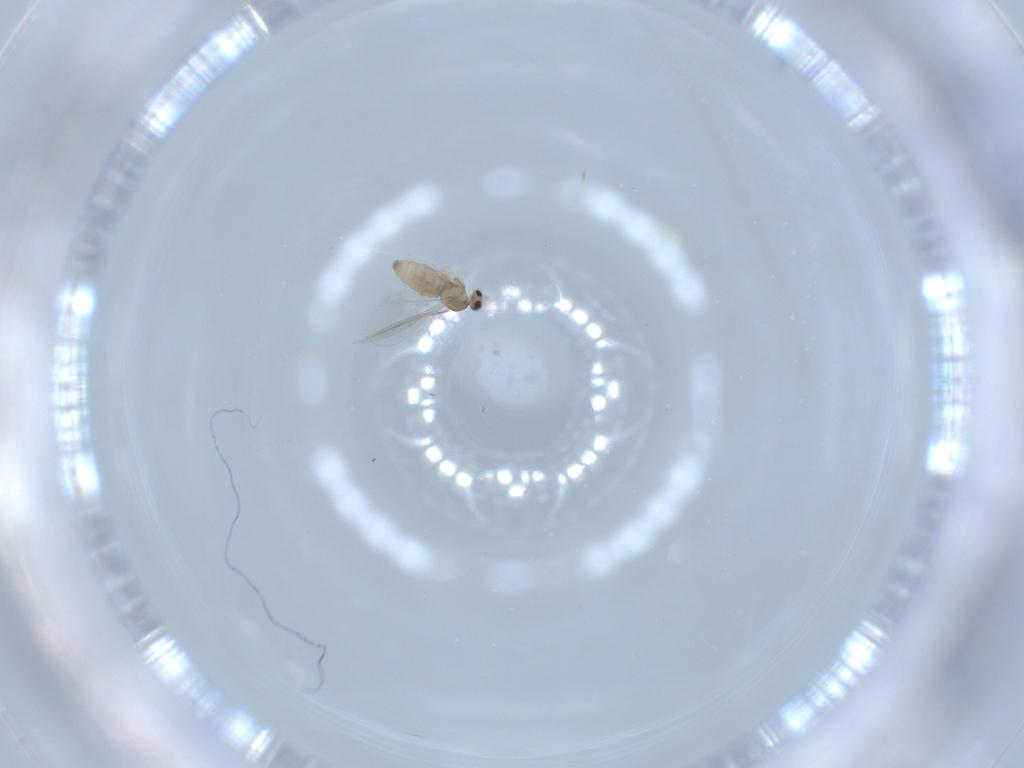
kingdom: Animalia
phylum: Arthropoda
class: Insecta
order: Diptera
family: Cecidomyiidae
